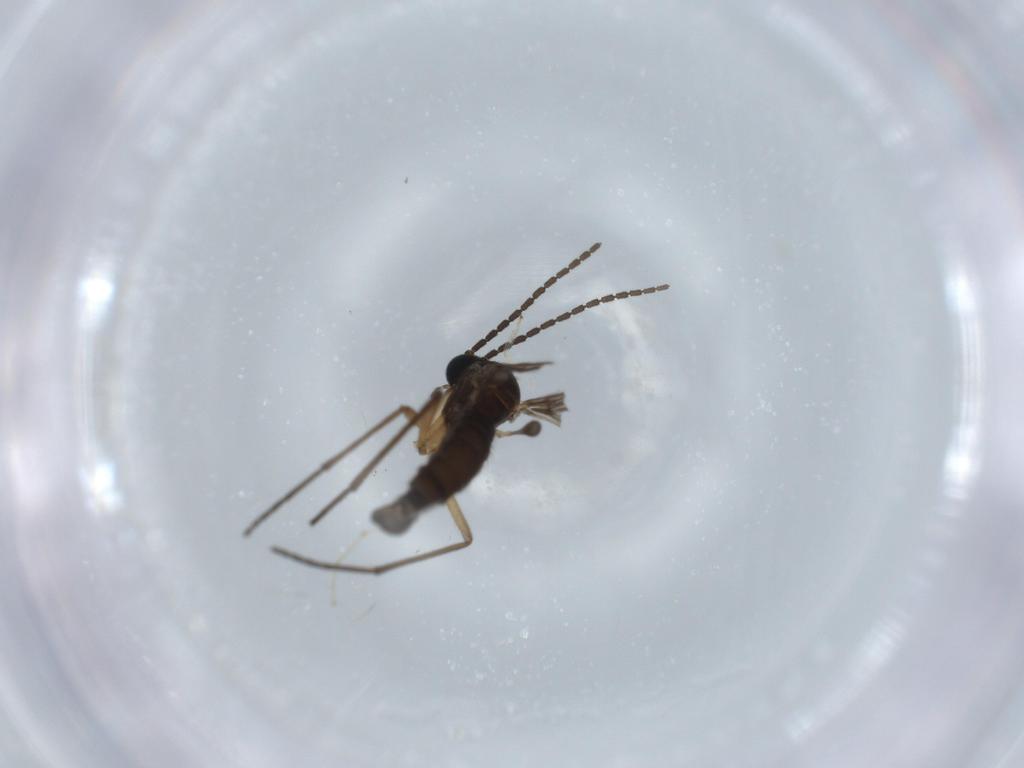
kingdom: Animalia
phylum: Arthropoda
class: Insecta
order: Diptera
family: Sciaridae
